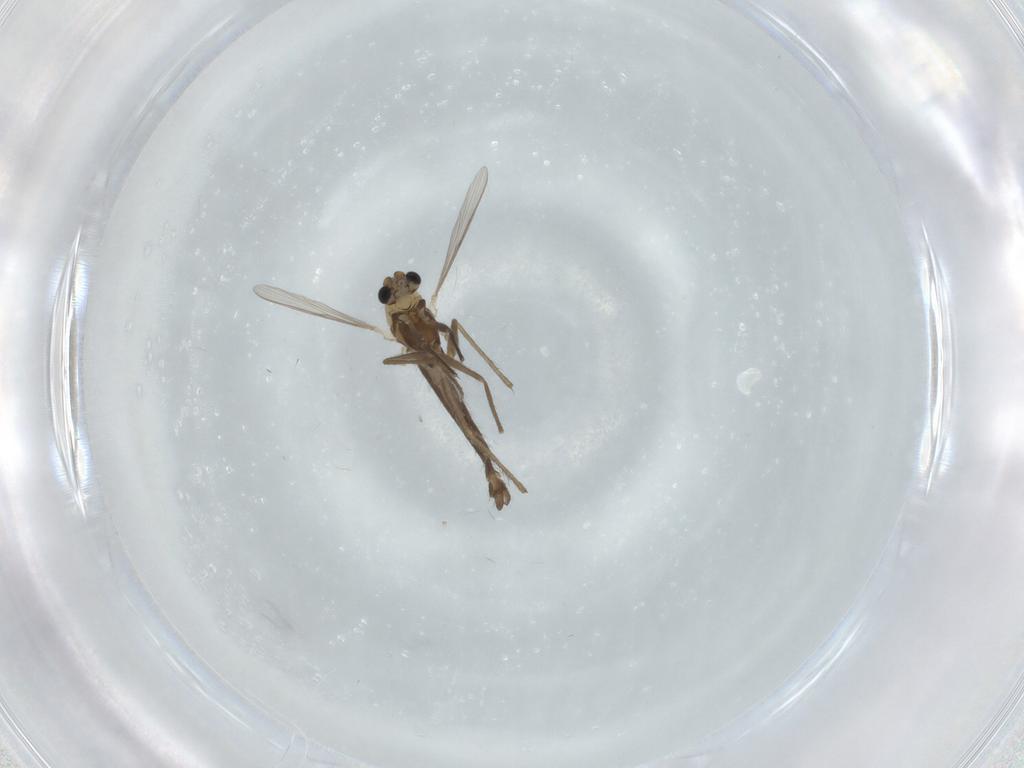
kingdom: Animalia
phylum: Arthropoda
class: Insecta
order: Diptera
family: Chironomidae
